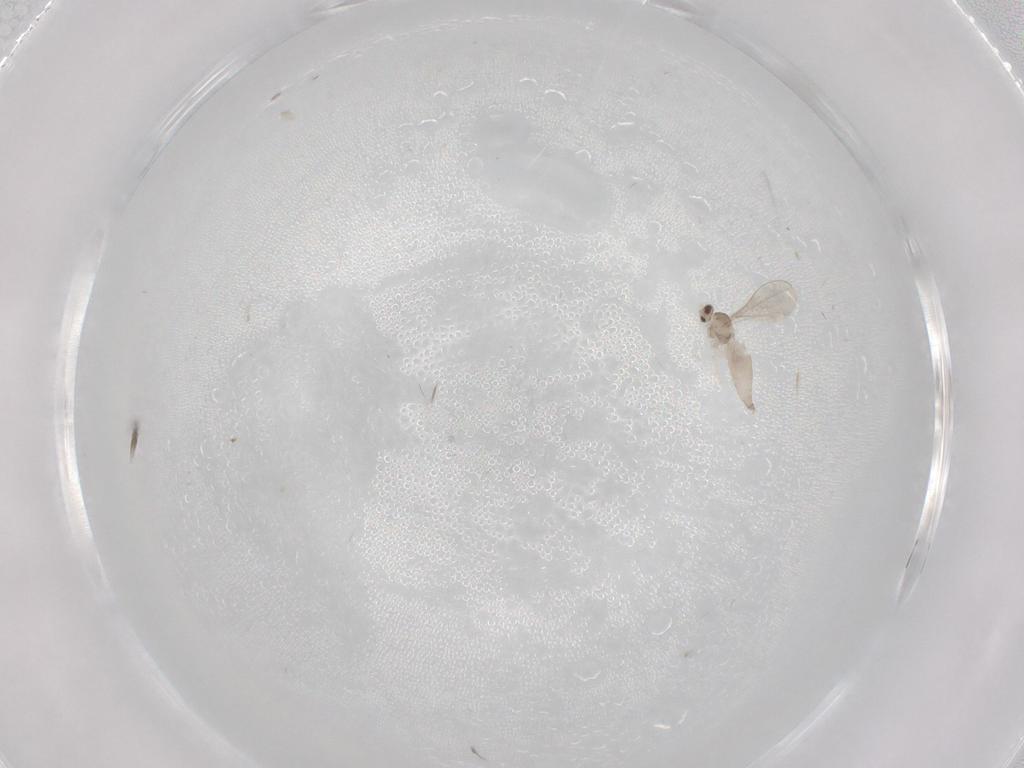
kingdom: Animalia
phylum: Arthropoda
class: Insecta
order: Diptera
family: Cecidomyiidae
